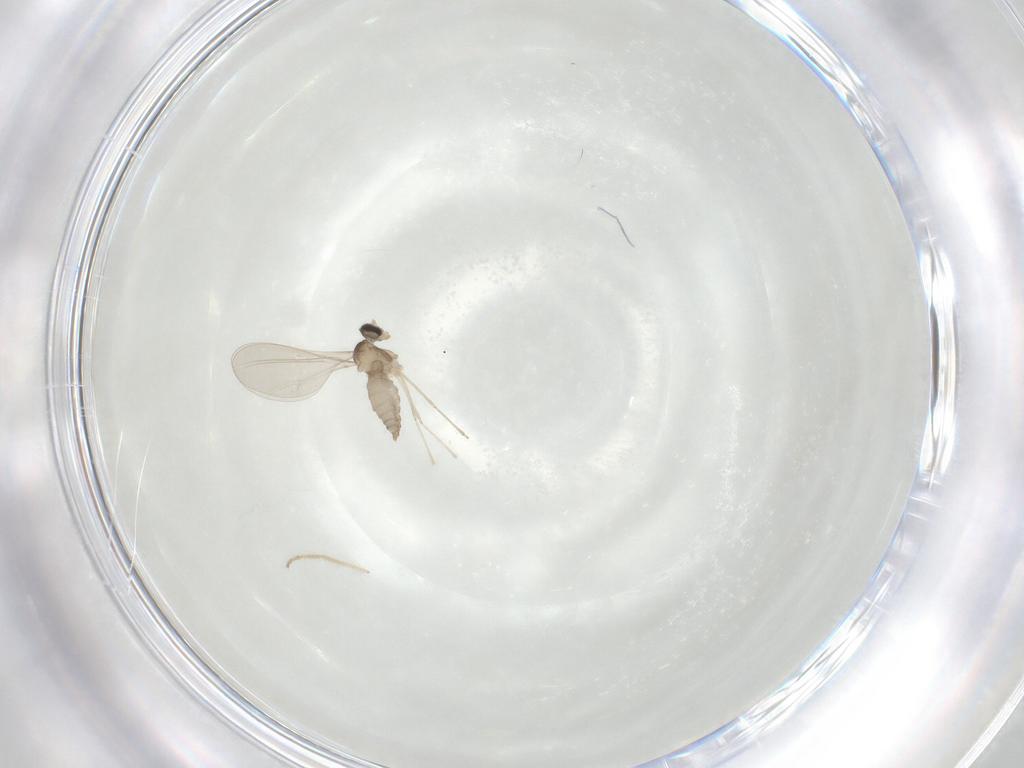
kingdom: Animalia
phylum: Arthropoda
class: Insecta
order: Diptera
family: Cecidomyiidae
